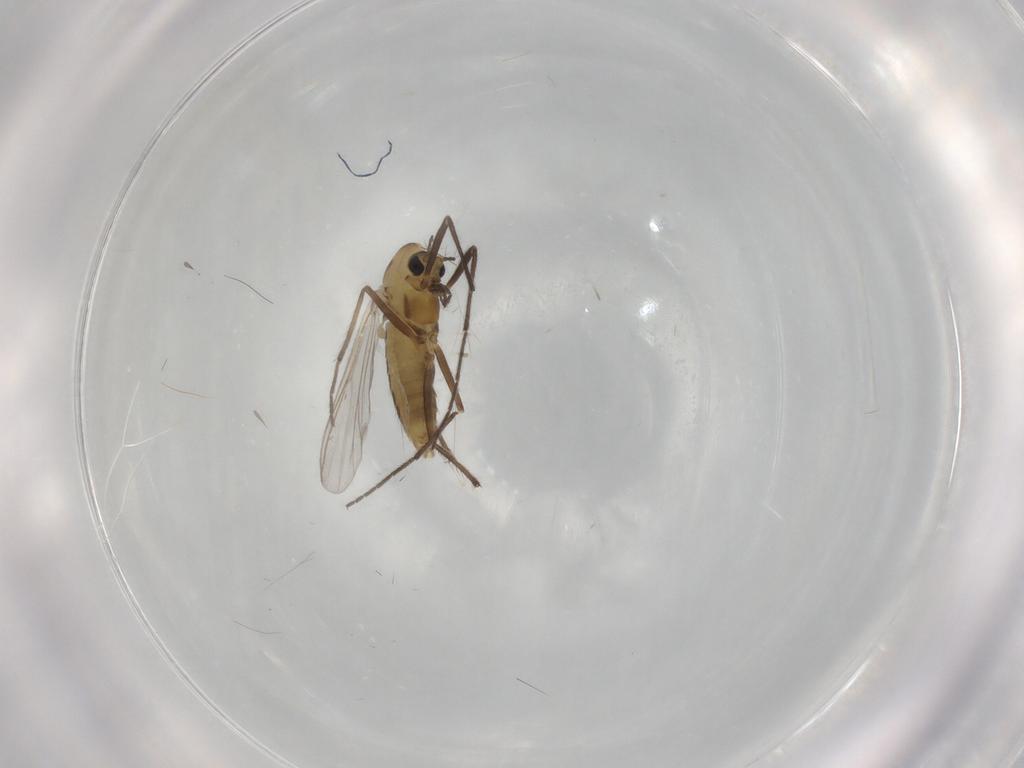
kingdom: Animalia
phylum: Arthropoda
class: Insecta
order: Diptera
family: Chironomidae
